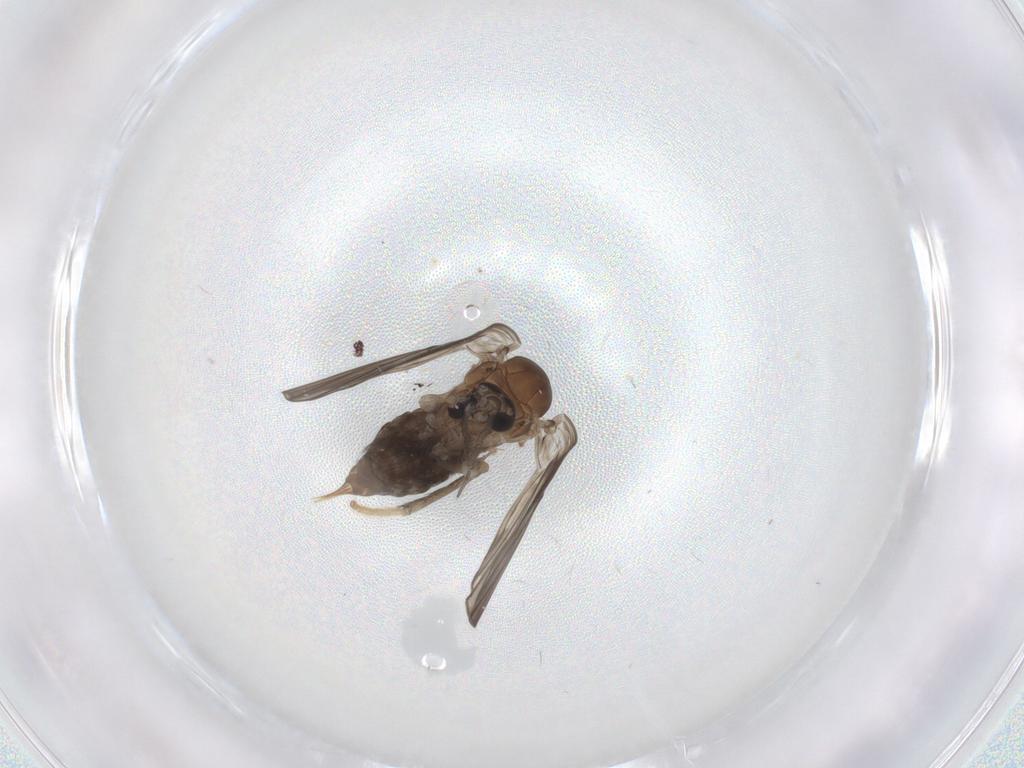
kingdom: Animalia
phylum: Arthropoda
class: Insecta
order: Diptera
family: Psychodidae
